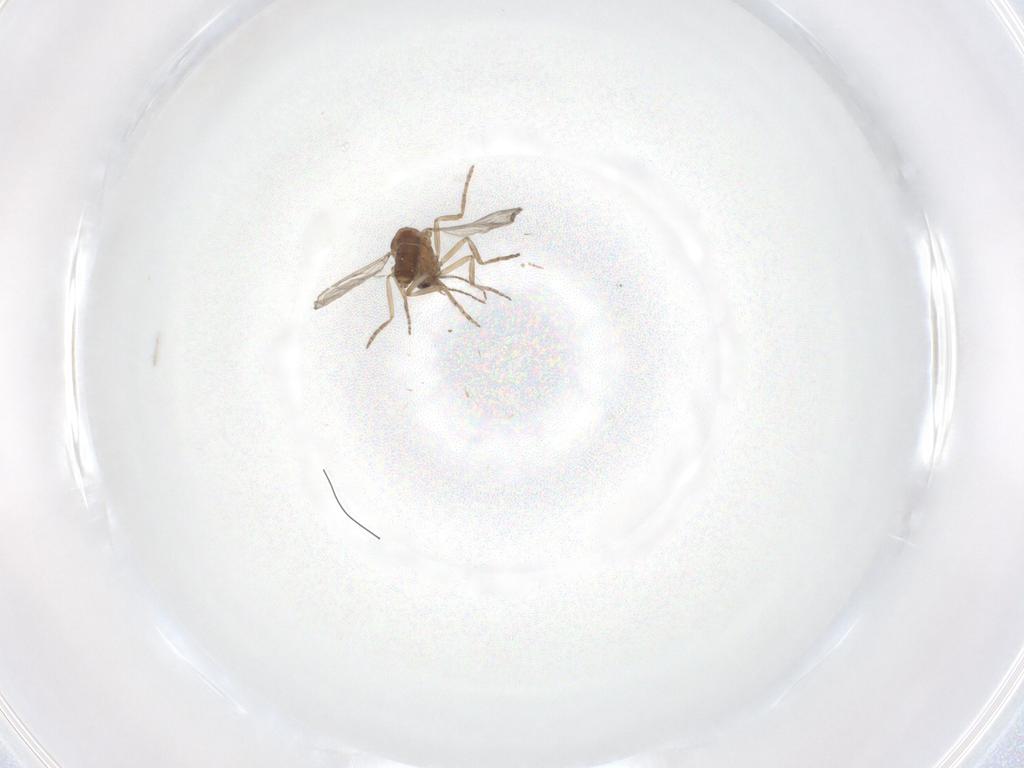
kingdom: Animalia
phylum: Arthropoda
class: Insecta
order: Diptera
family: Chironomidae
